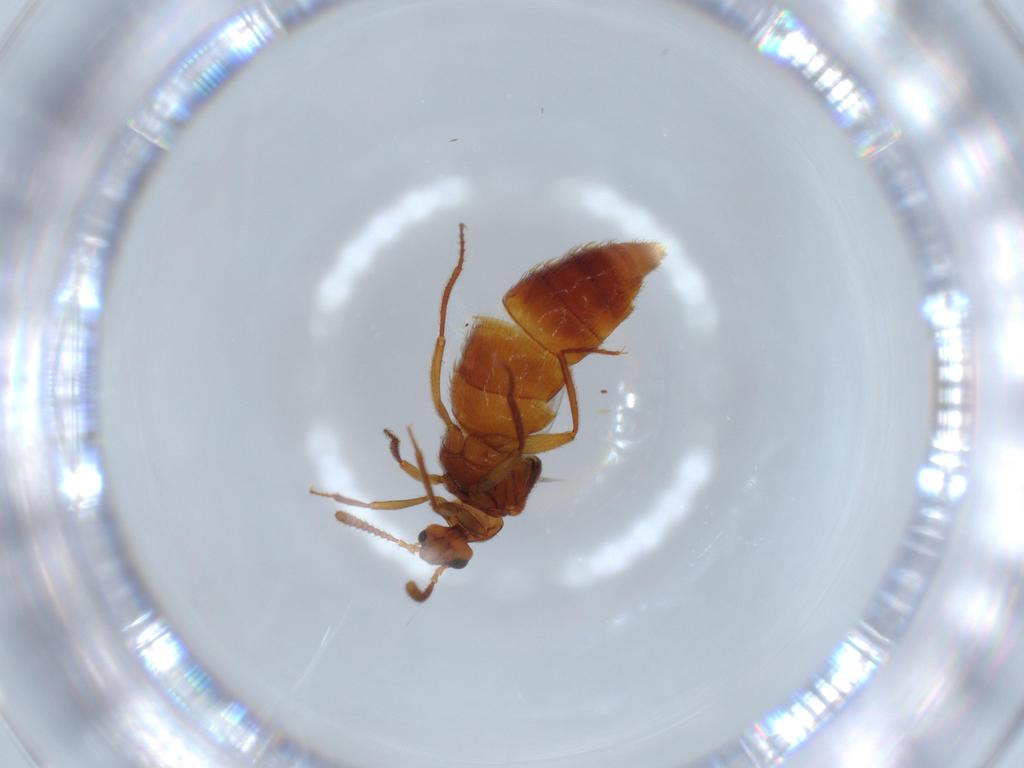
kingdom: Animalia
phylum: Arthropoda
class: Insecta
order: Coleoptera
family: Staphylinidae
